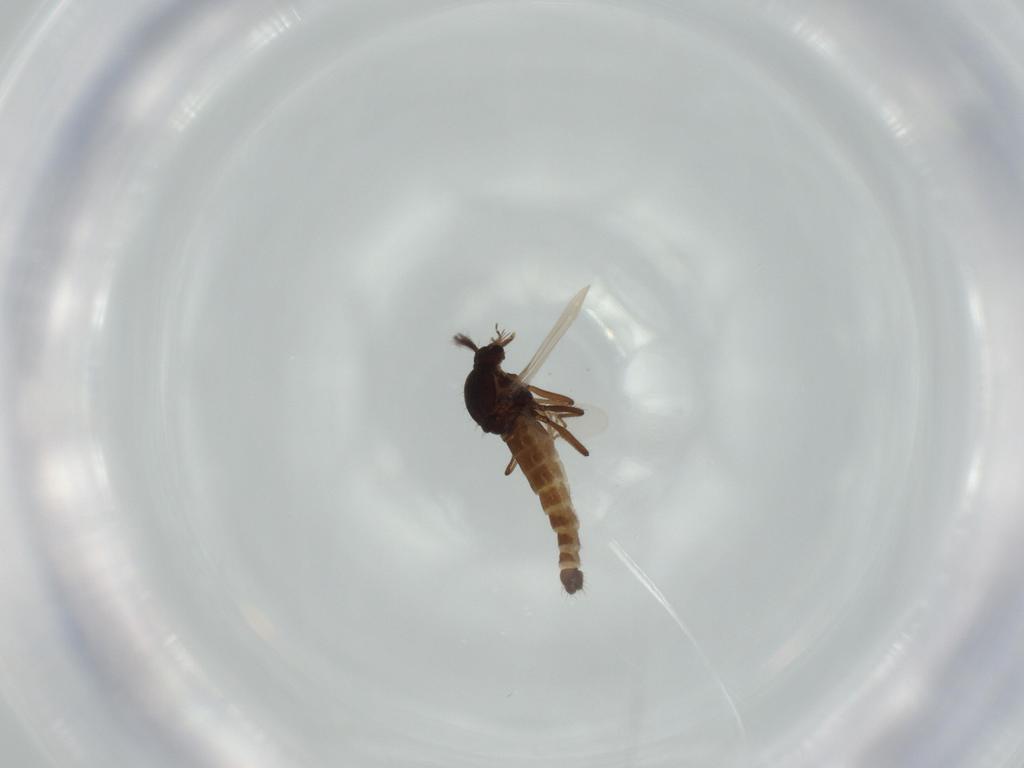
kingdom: Animalia
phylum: Arthropoda
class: Insecta
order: Diptera
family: Ceratopogonidae
